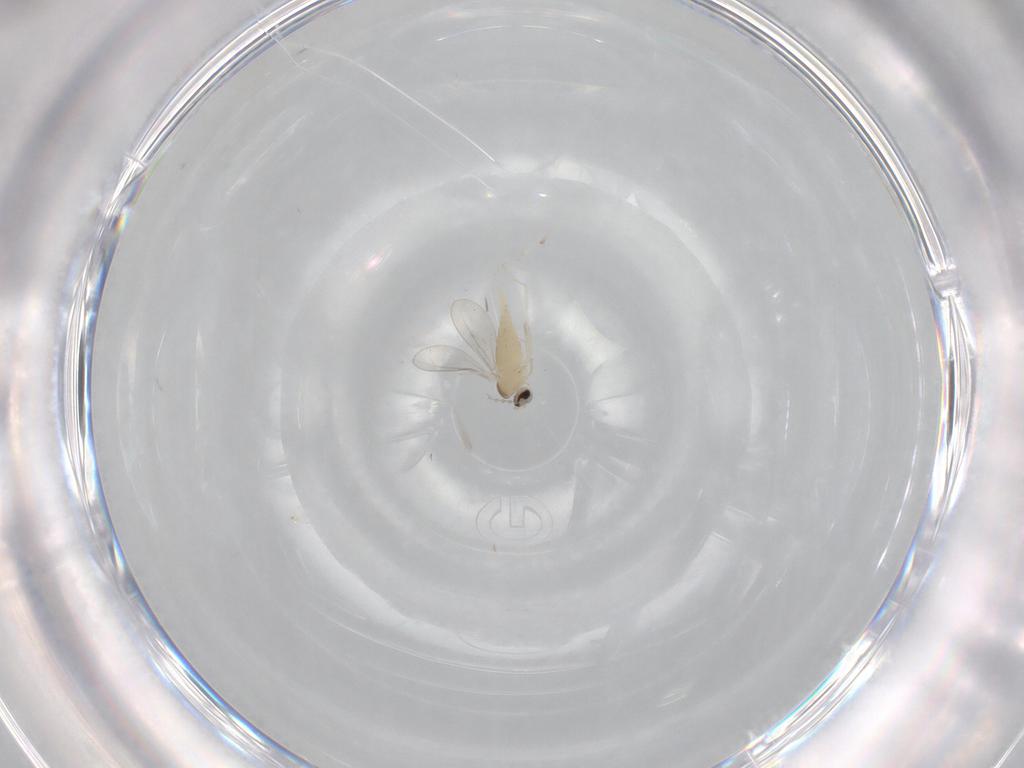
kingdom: Animalia
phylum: Arthropoda
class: Insecta
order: Diptera
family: Cecidomyiidae
